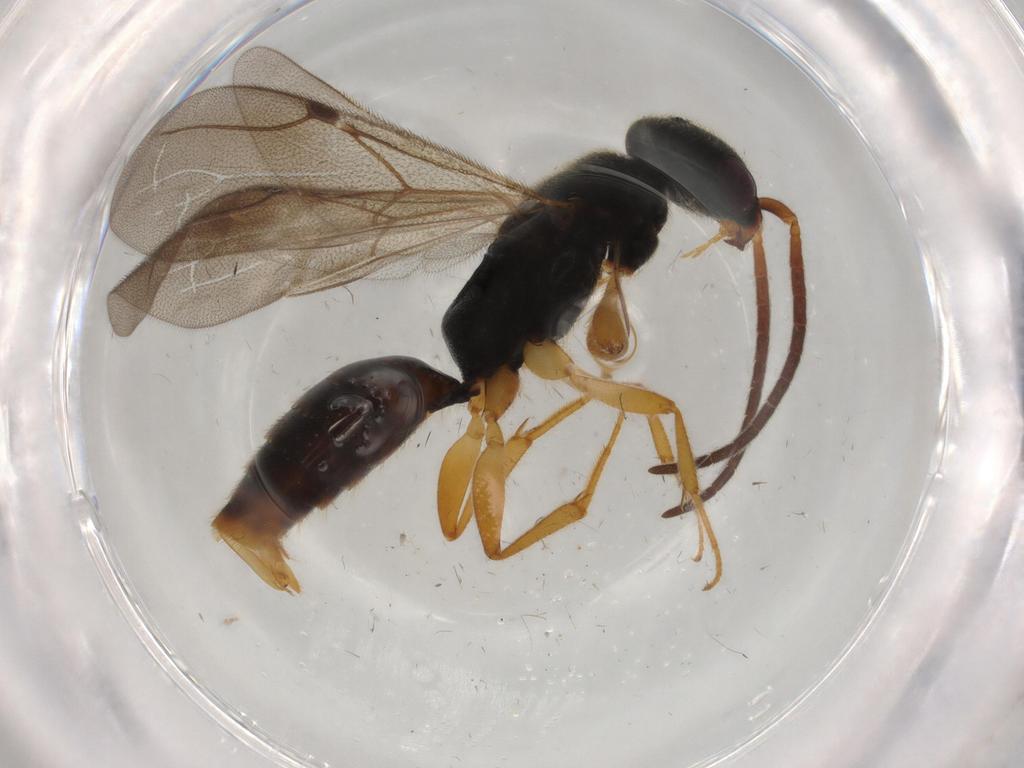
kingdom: Animalia
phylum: Arthropoda
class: Insecta
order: Hymenoptera
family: Bethylidae
